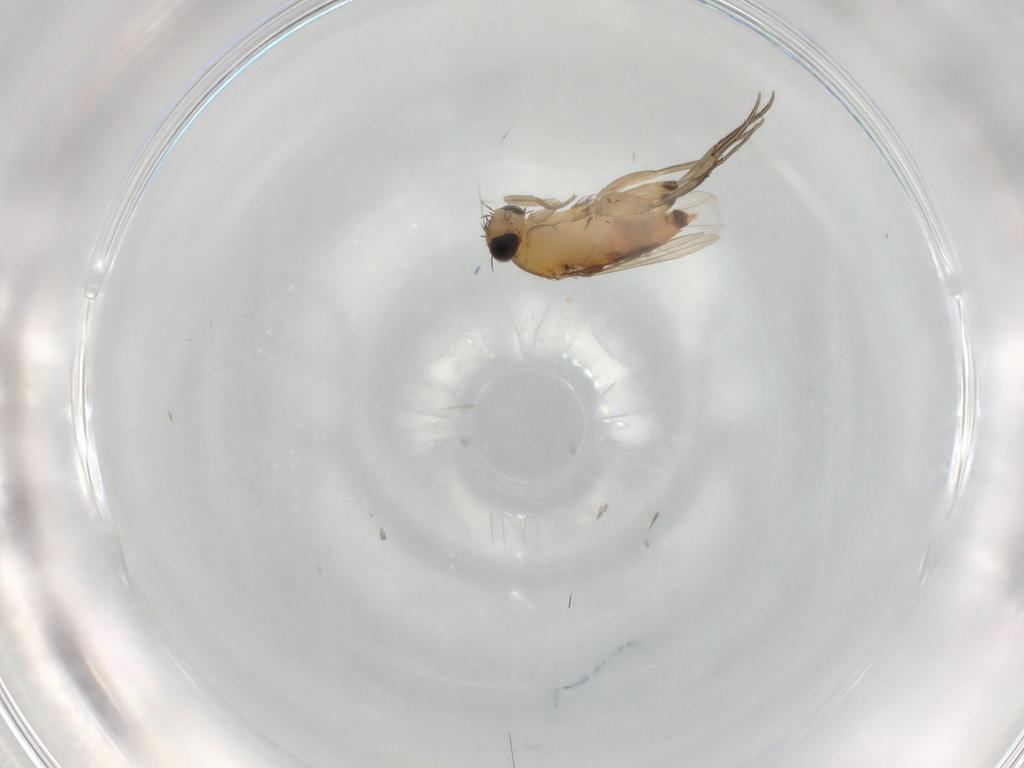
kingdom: Animalia
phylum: Arthropoda
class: Insecta
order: Diptera
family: Phoridae
